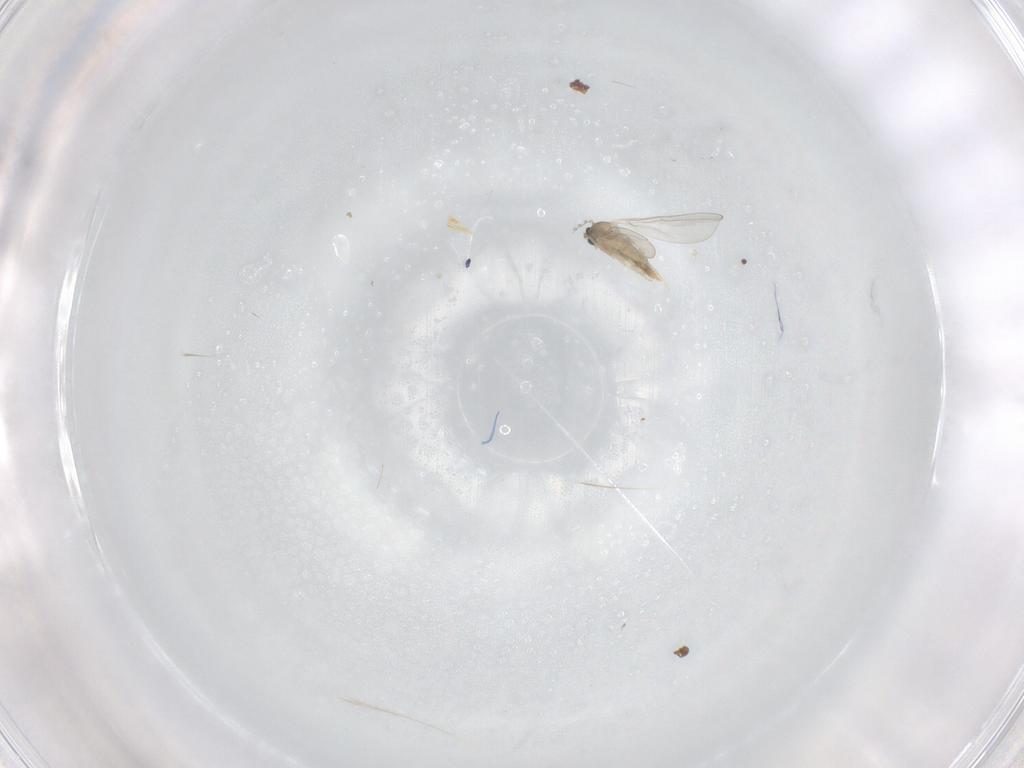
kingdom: Animalia
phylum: Arthropoda
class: Insecta
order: Diptera
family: Cecidomyiidae
